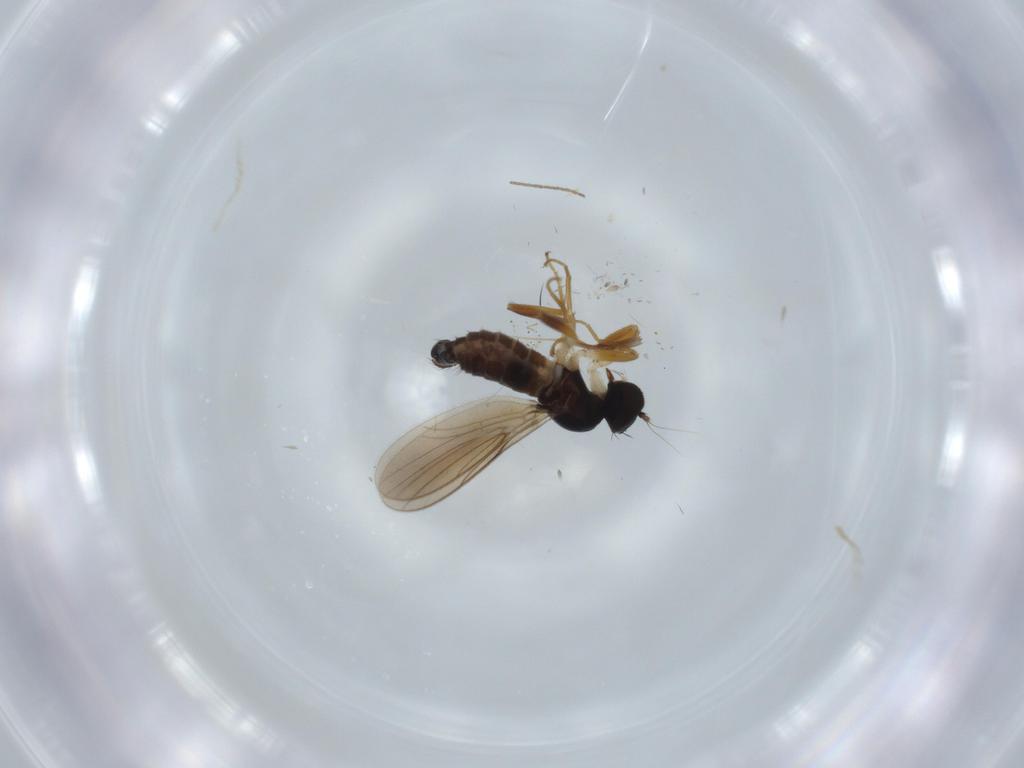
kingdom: Animalia
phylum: Arthropoda
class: Insecta
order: Diptera
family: Hybotidae
